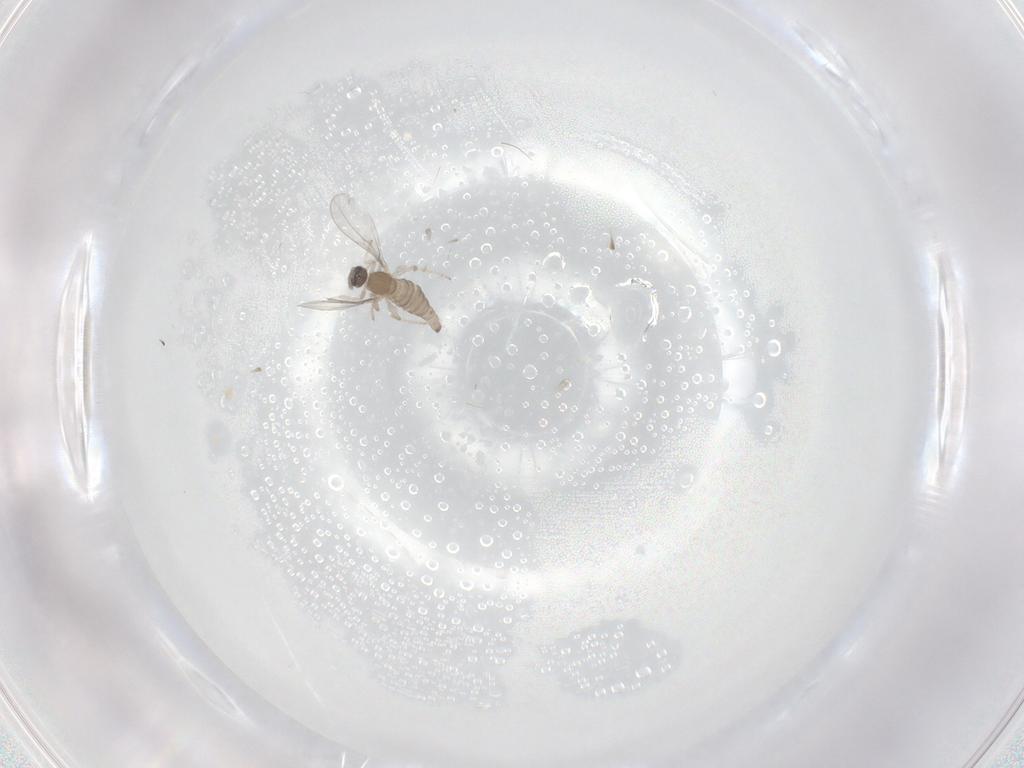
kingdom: Animalia
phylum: Arthropoda
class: Insecta
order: Diptera
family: Cecidomyiidae
